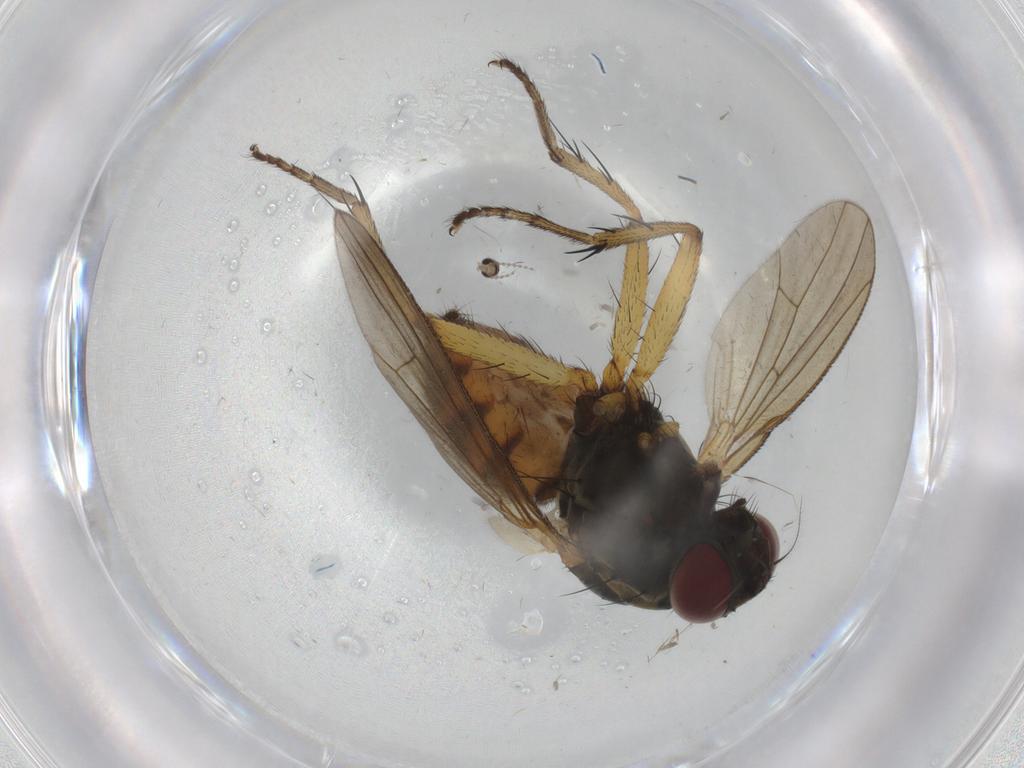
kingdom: Animalia
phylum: Arthropoda
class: Insecta
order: Diptera
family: Muscidae
